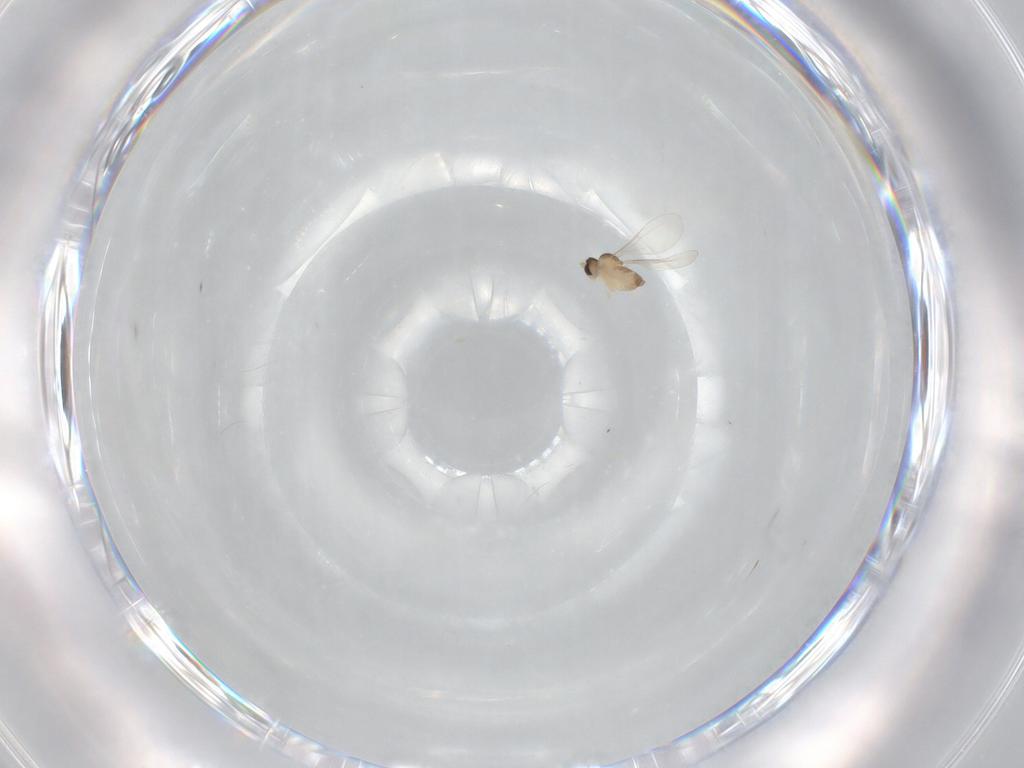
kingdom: Animalia
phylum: Arthropoda
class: Insecta
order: Diptera
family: Cecidomyiidae
